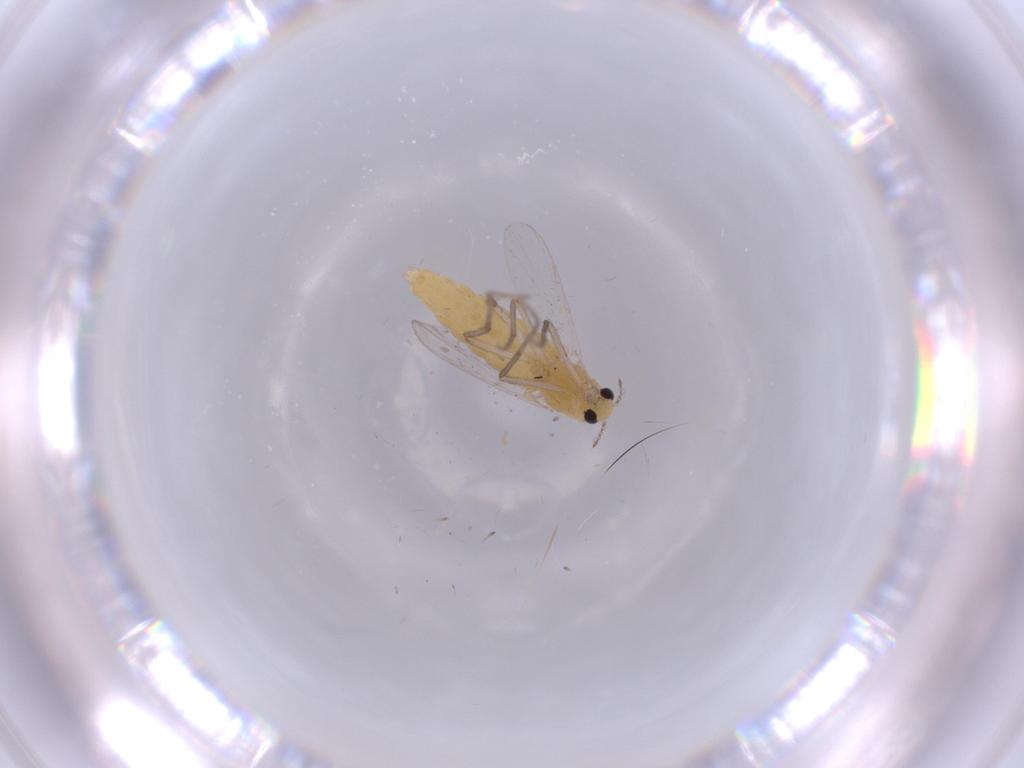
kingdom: Animalia
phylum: Arthropoda
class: Insecta
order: Diptera
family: Chironomidae
